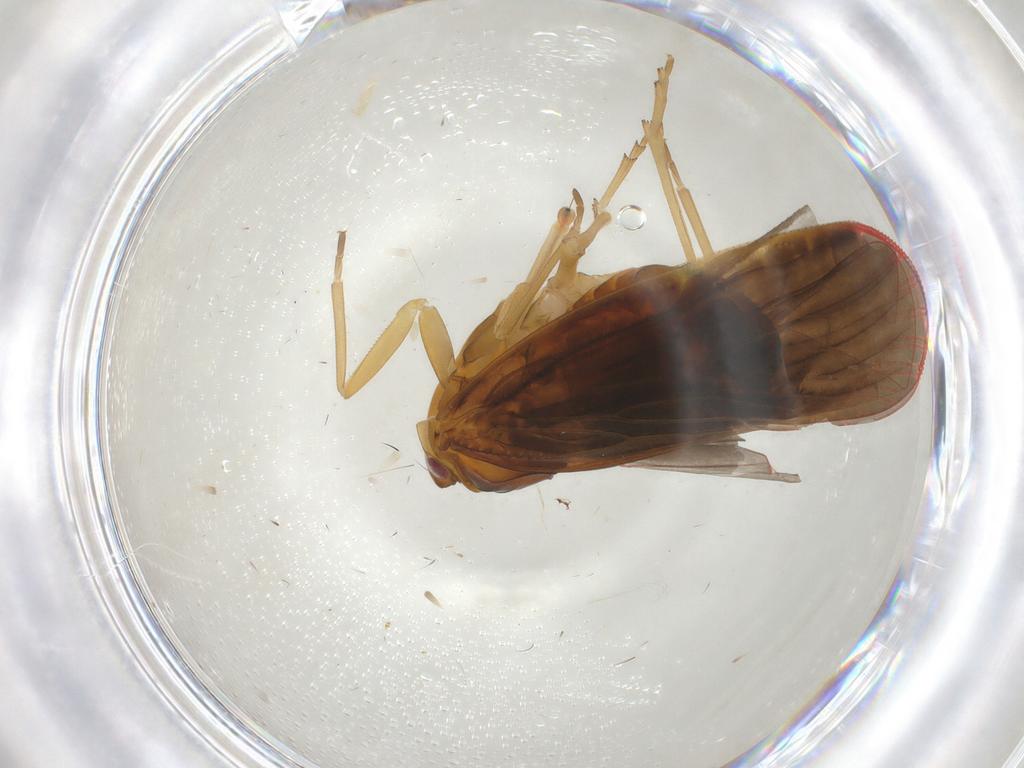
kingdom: Animalia
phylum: Arthropoda
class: Insecta
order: Hemiptera
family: Derbidae
